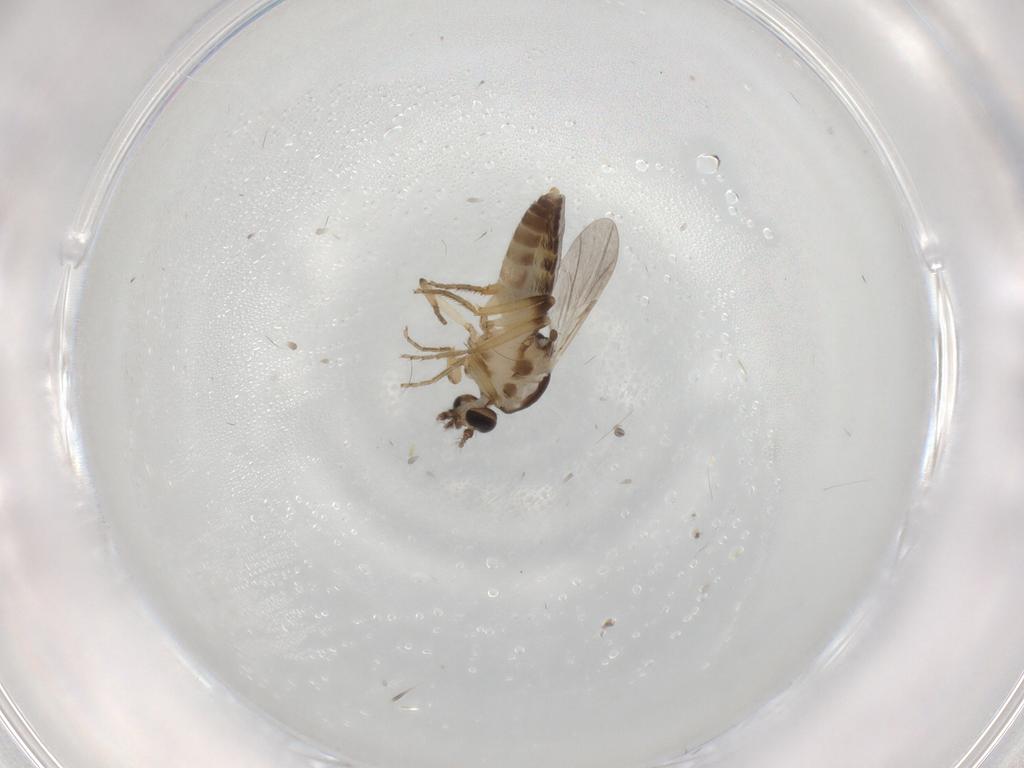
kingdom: Animalia
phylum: Arthropoda
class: Insecta
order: Diptera
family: Ceratopogonidae
